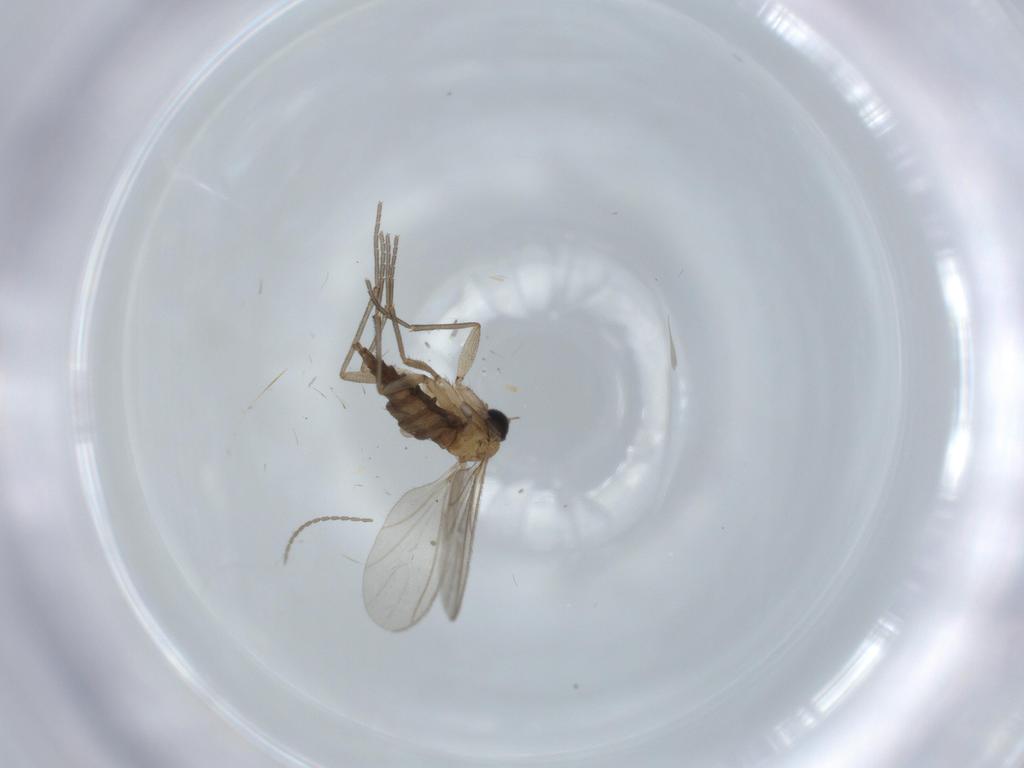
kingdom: Animalia
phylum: Arthropoda
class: Insecta
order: Diptera
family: Sciaridae
